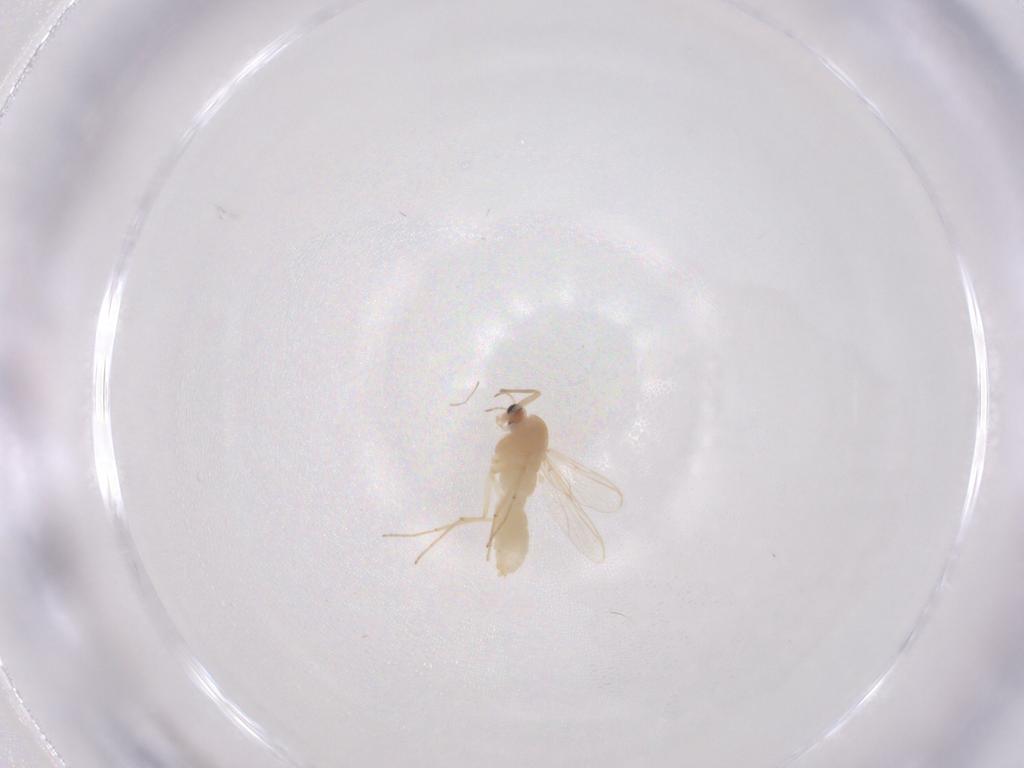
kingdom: Animalia
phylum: Arthropoda
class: Insecta
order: Diptera
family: Chironomidae
